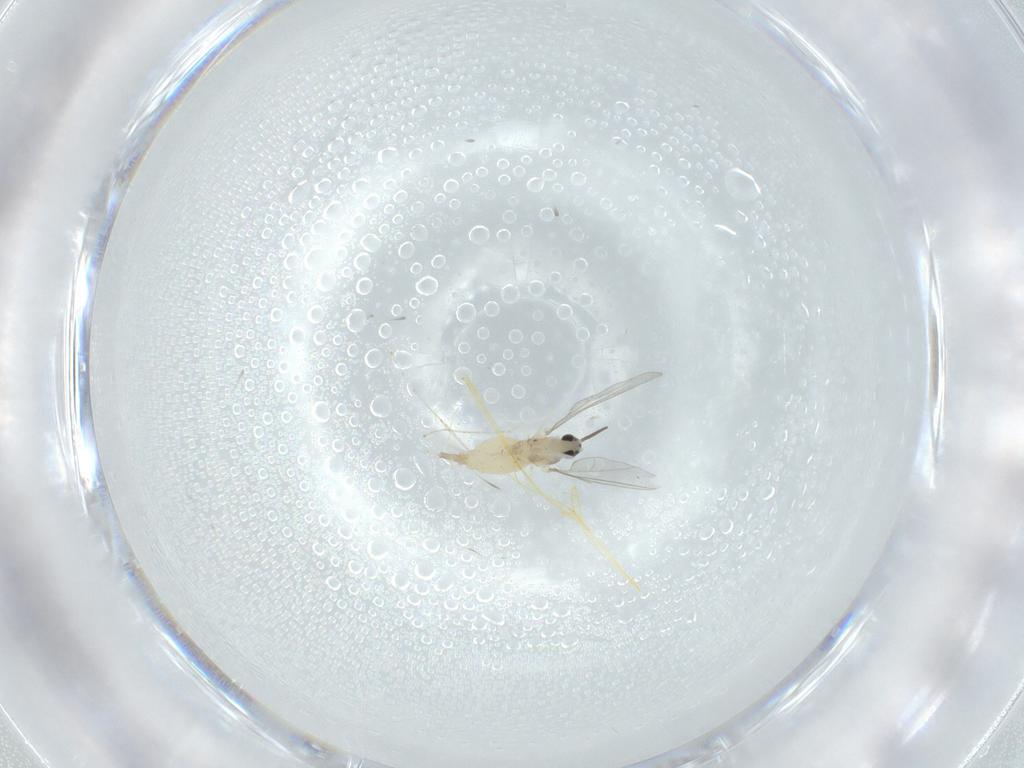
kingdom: Animalia
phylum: Arthropoda
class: Insecta
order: Diptera
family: Cecidomyiidae
